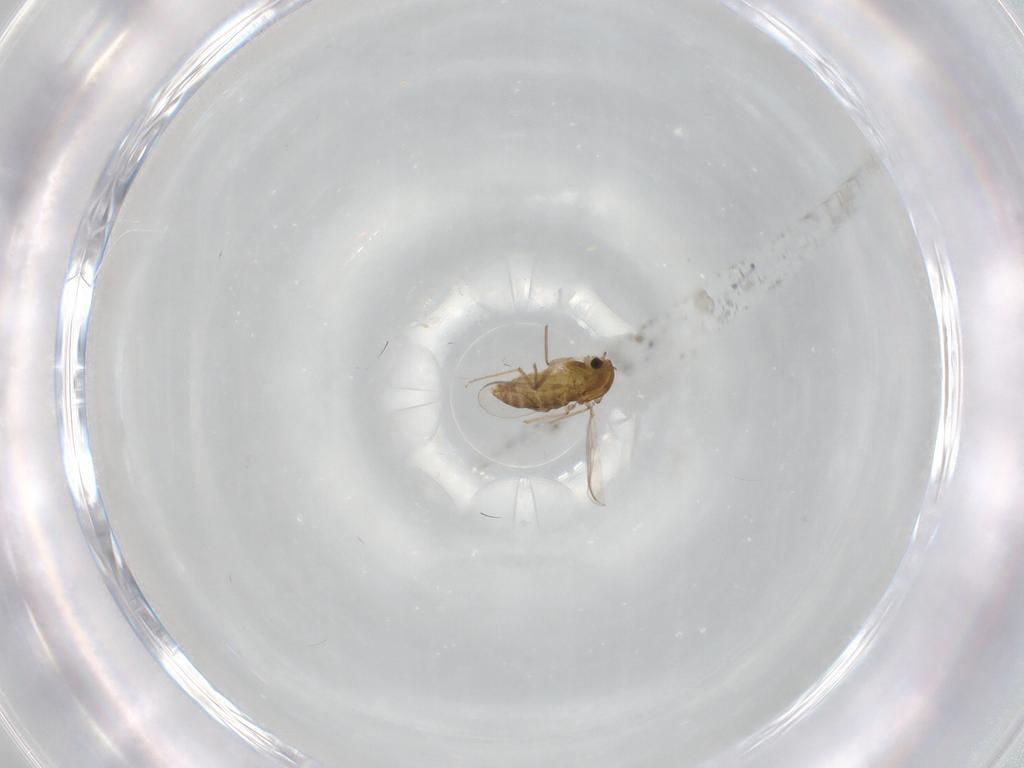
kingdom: Animalia
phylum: Arthropoda
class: Insecta
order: Diptera
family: Chironomidae
